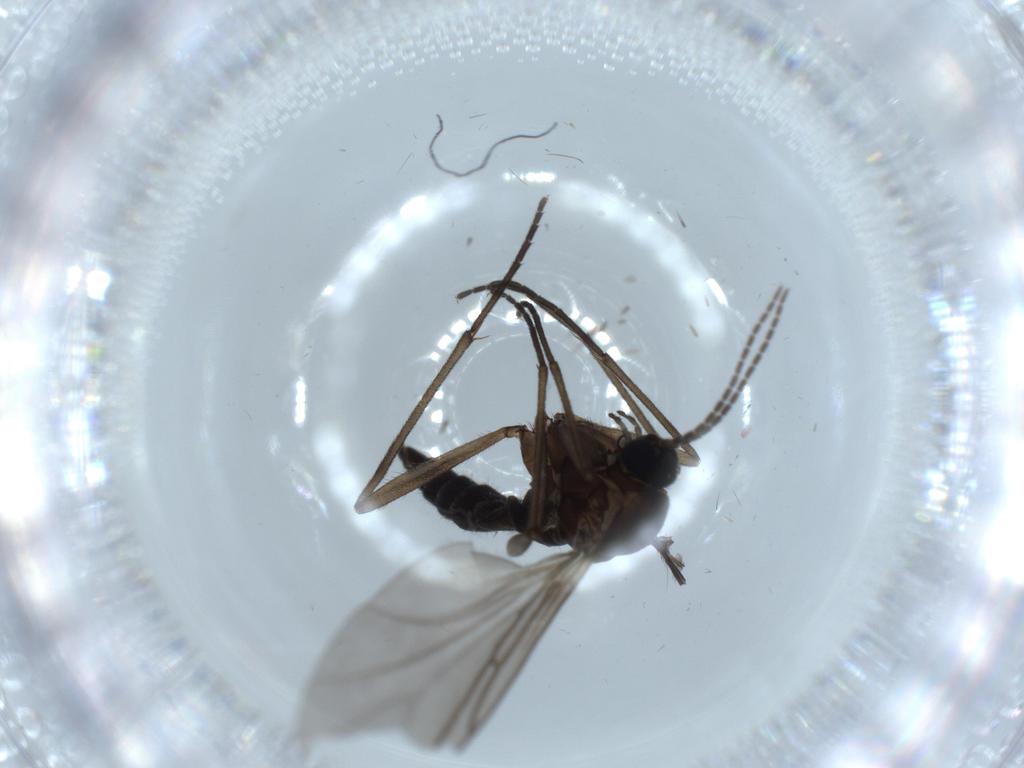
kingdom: Animalia
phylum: Arthropoda
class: Insecta
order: Diptera
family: Sciaridae
